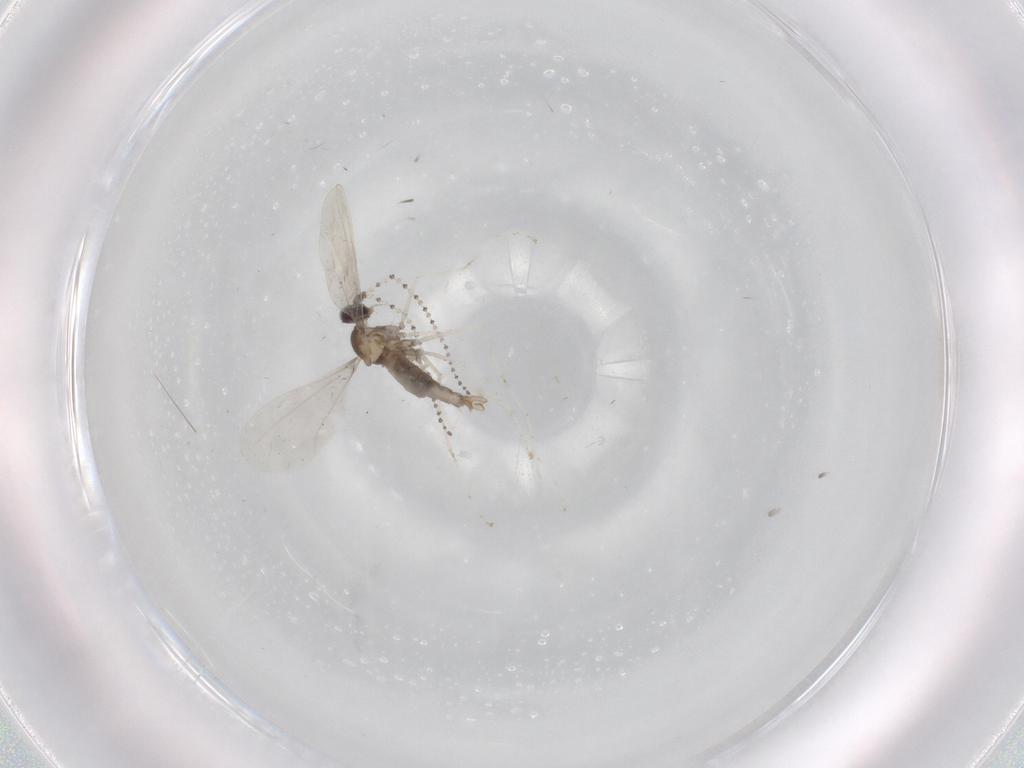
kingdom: Animalia
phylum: Arthropoda
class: Insecta
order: Diptera
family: Cecidomyiidae
